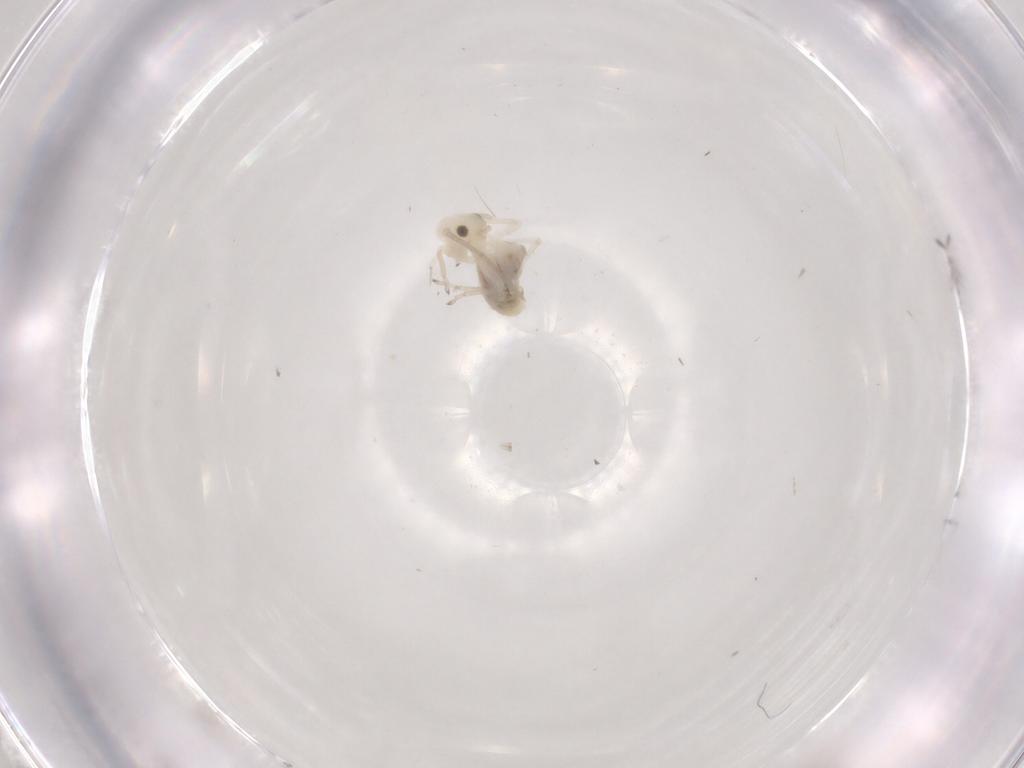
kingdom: Animalia
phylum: Arthropoda
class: Insecta
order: Psocodea
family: Caeciliusidae
